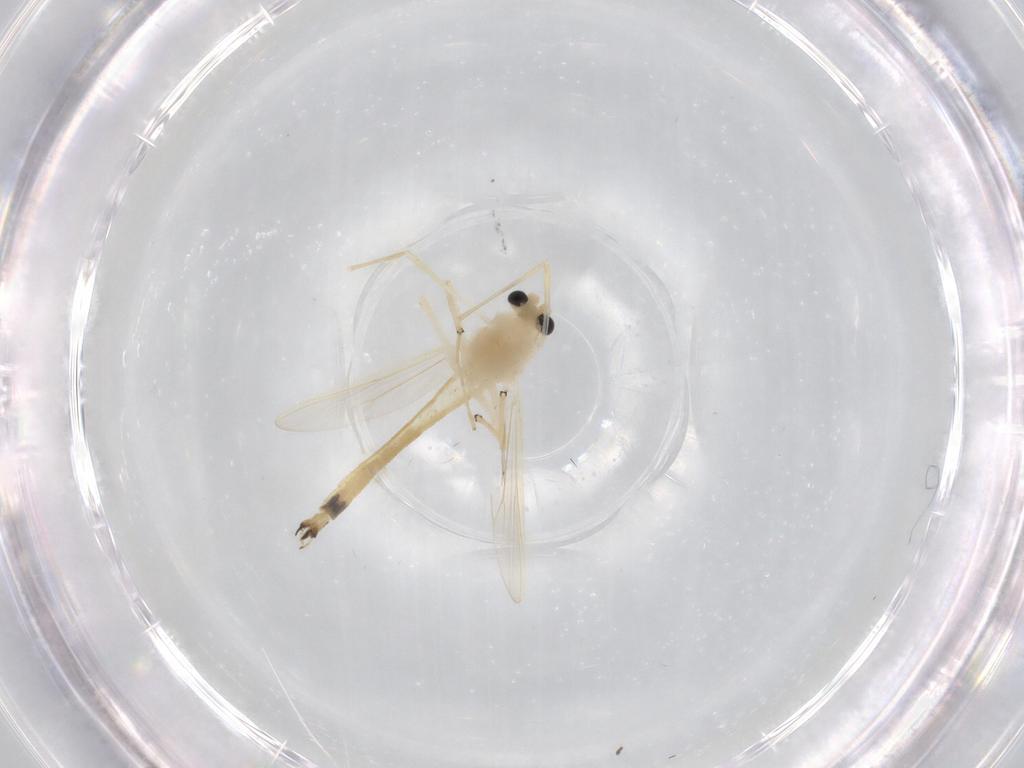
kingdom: Animalia
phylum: Arthropoda
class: Insecta
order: Diptera
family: Chironomidae
